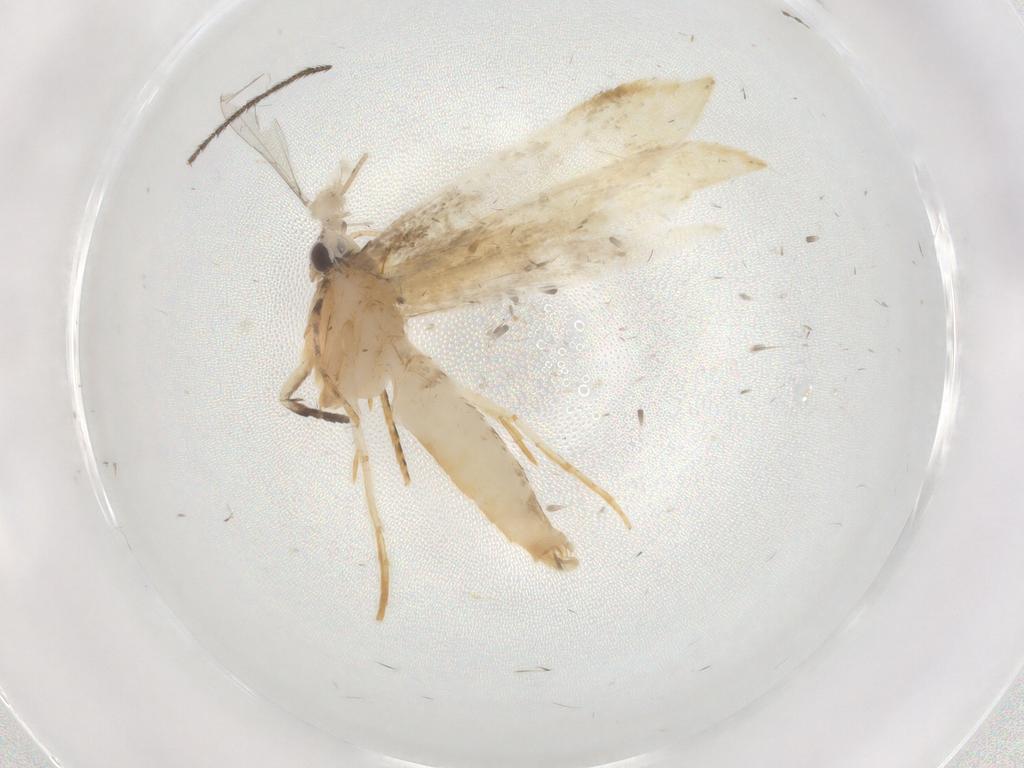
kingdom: Animalia
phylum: Arthropoda
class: Insecta
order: Lepidoptera
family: Tineidae
